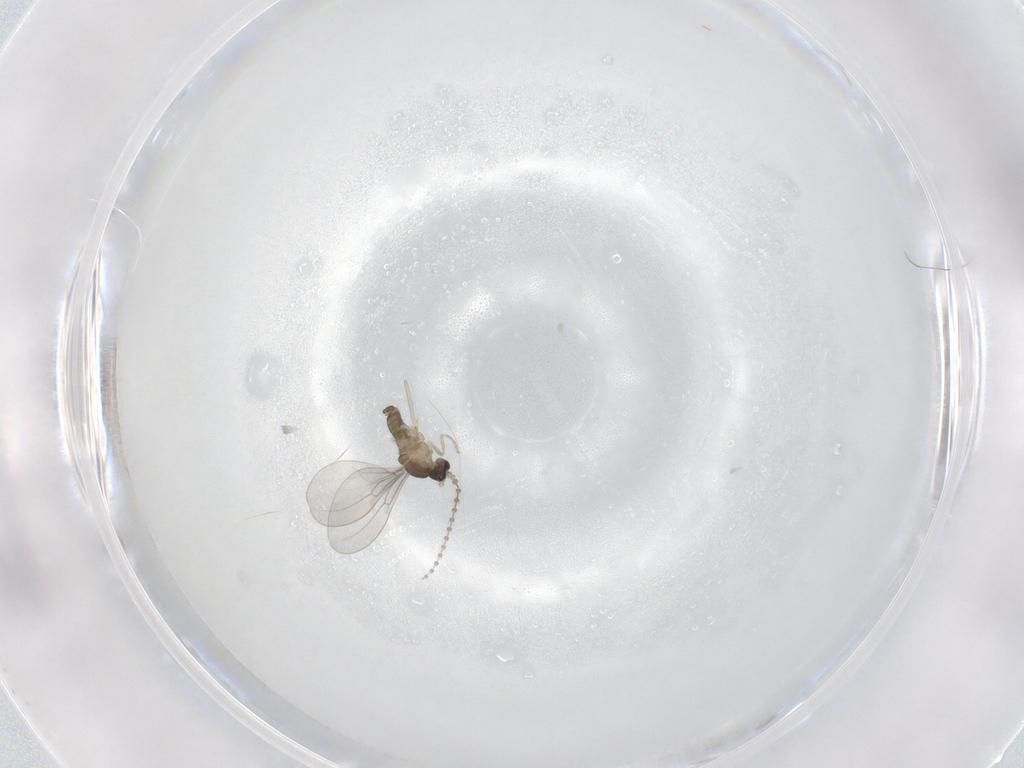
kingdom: Animalia
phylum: Arthropoda
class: Insecta
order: Diptera
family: Cecidomyiidae
